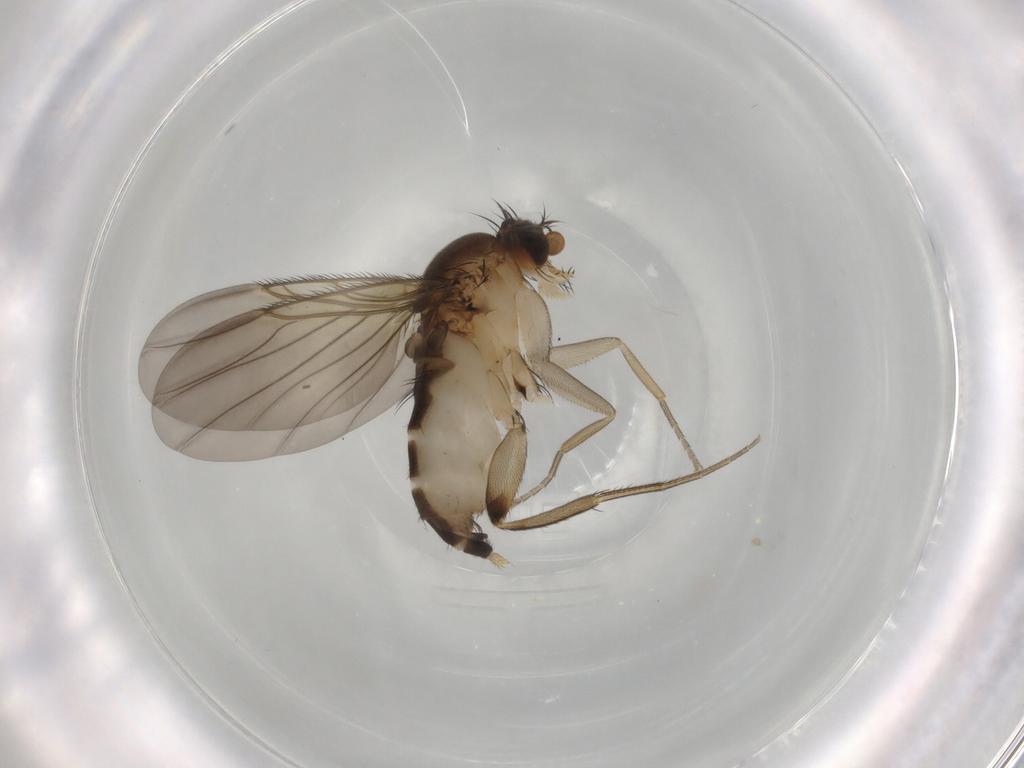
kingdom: Animalia
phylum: Arthropoda
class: Insecta
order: Diptera
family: Phoridae
